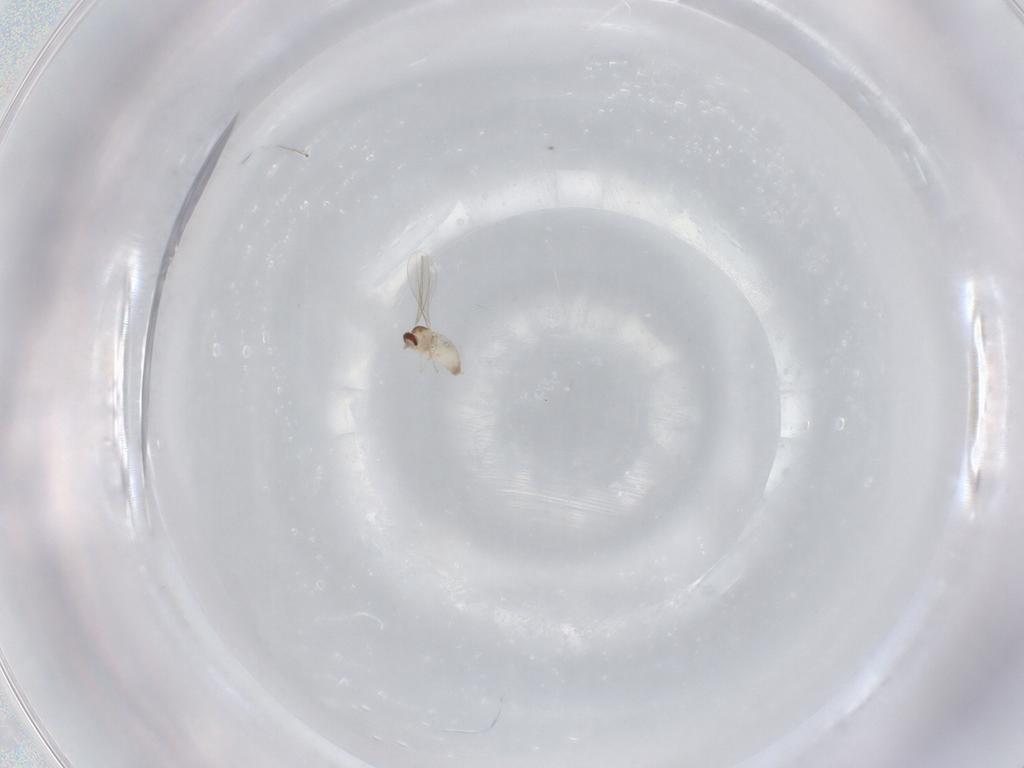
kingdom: Animalia
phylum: Arthropoda
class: Insecta
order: Diptera
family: Cecidomyiidae
